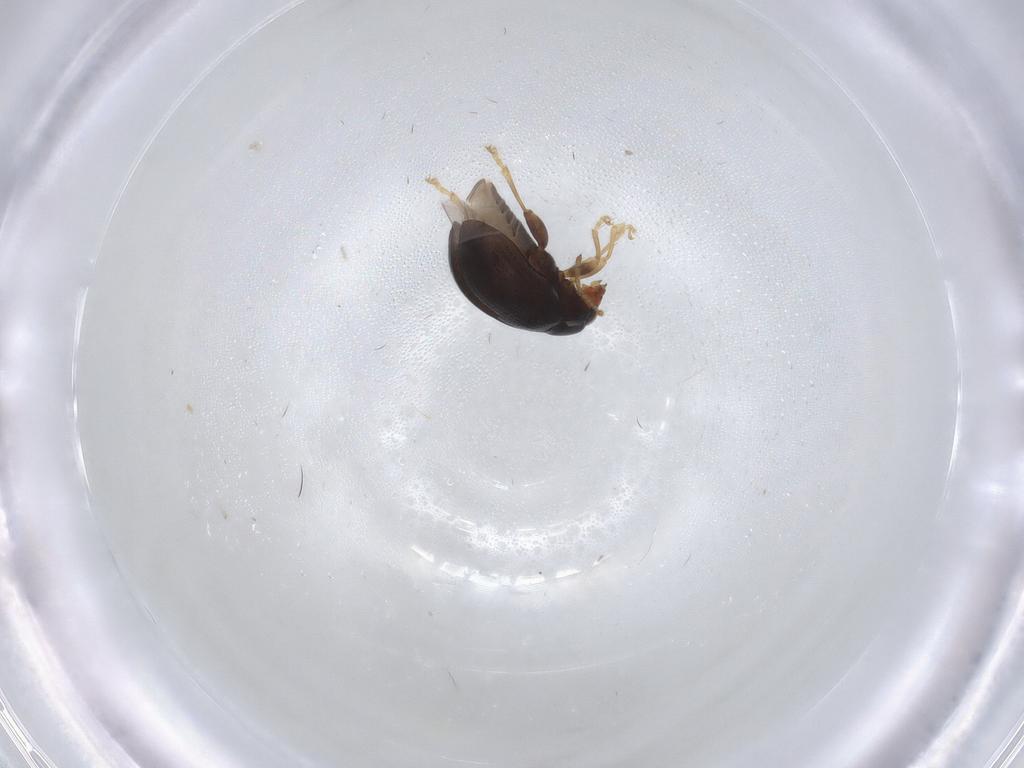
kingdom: Animalia
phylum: Arthropoda
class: Insecta
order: Coleoptera
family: Chrysomelidae
